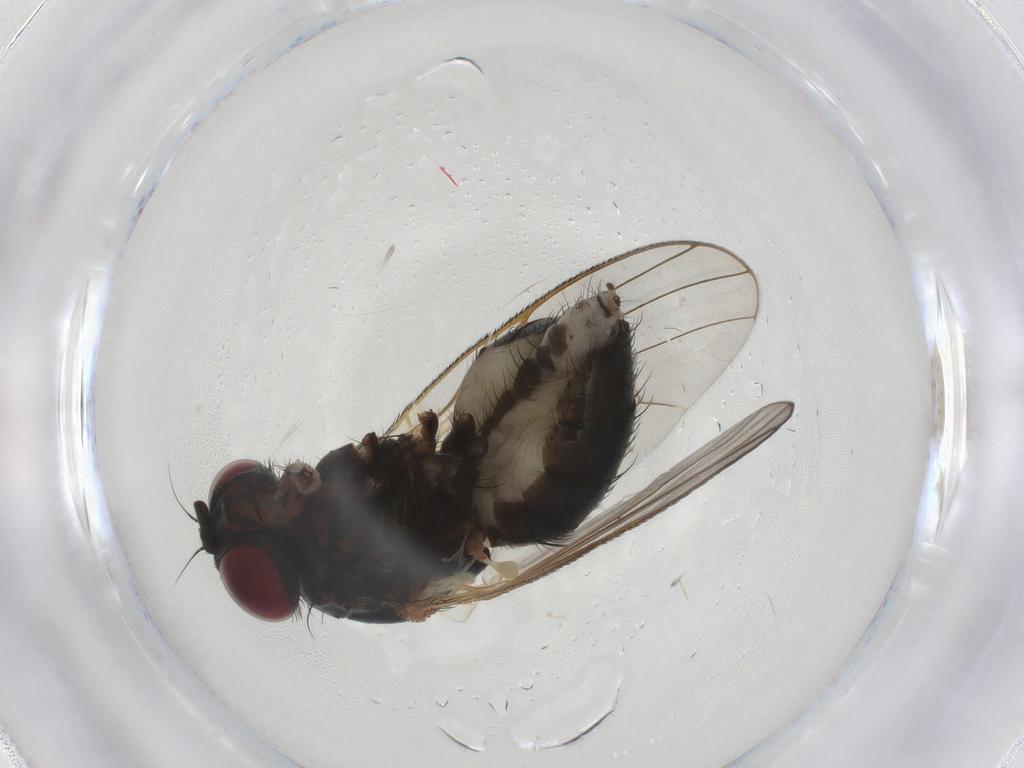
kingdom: Animalia
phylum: Arthropoda
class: Insecta
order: Diptera
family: Fannia
